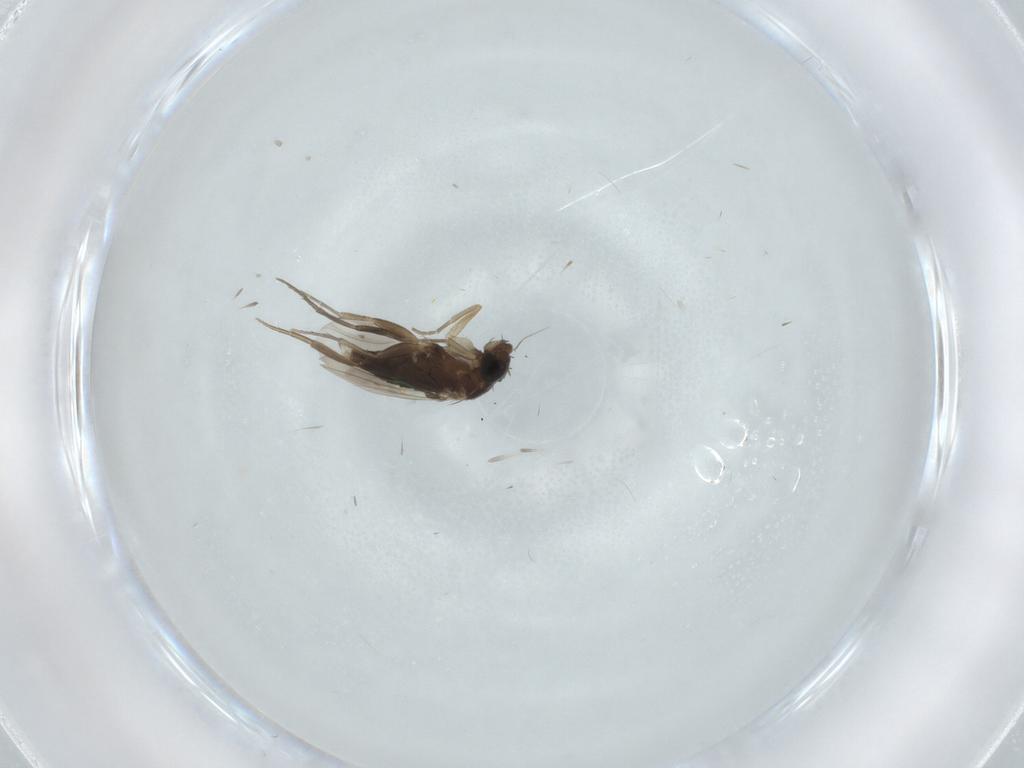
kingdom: Animalia
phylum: Arthropoda
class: Insecta
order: Diptera
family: Phoridae
